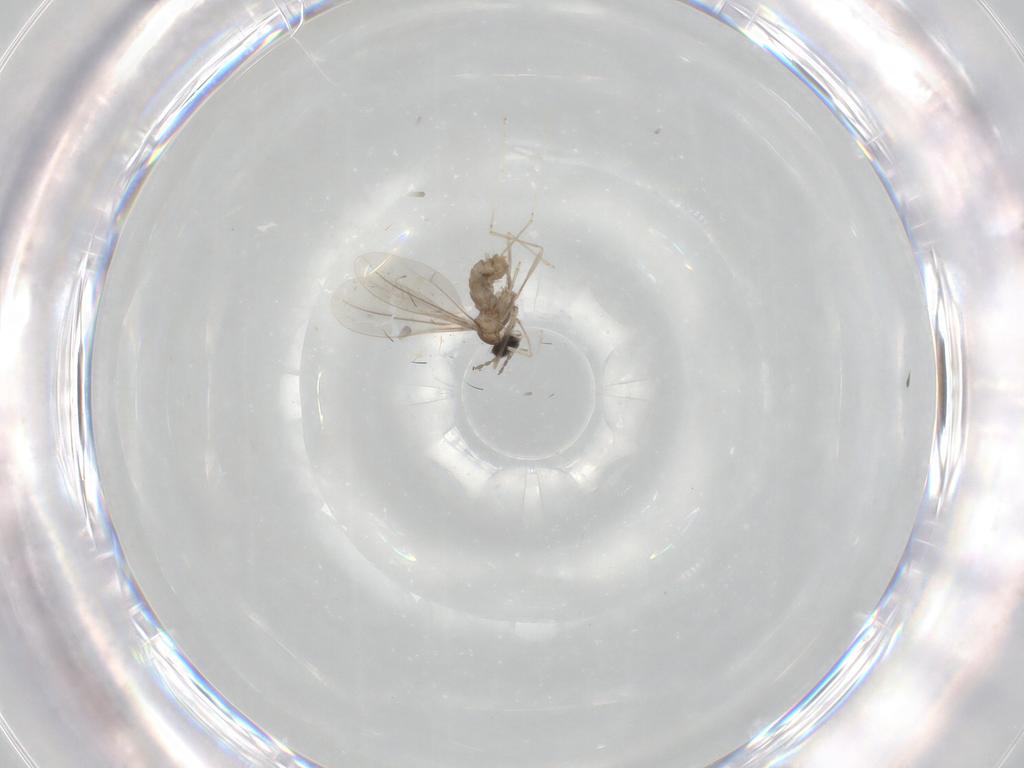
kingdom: Animalia
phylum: Arthropoda
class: Insecta
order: Diptera
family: Cecidomyiidae
